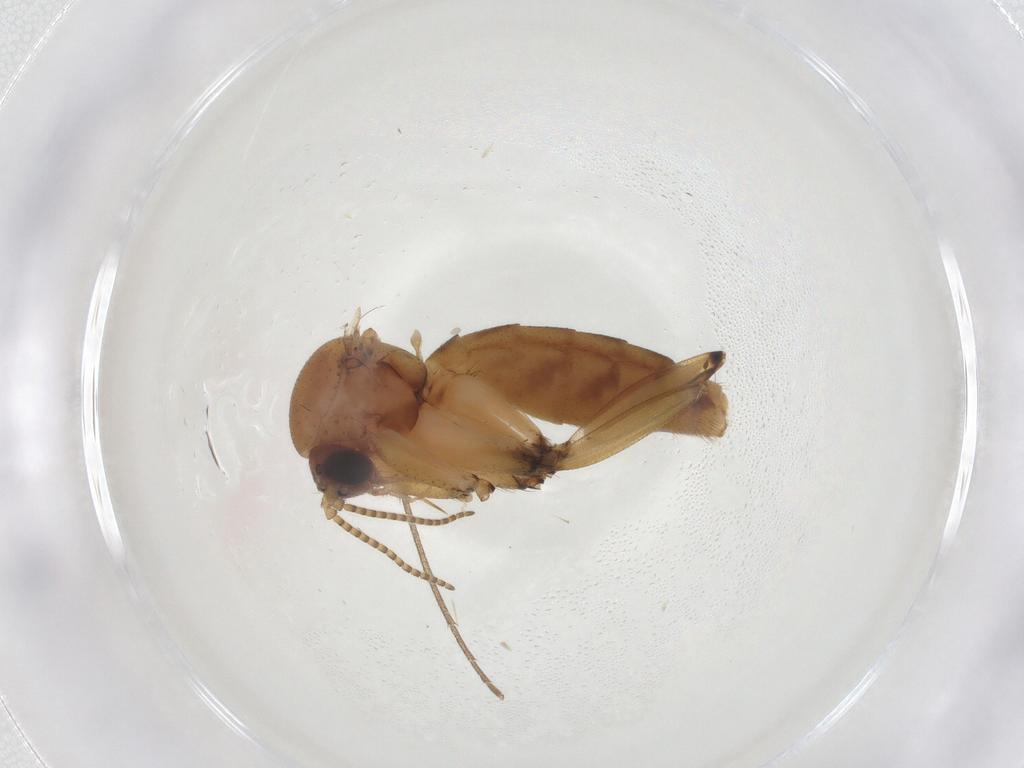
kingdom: Animalia
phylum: Arthropoda
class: Insecta
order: Diptera
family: Mycetophilidae
